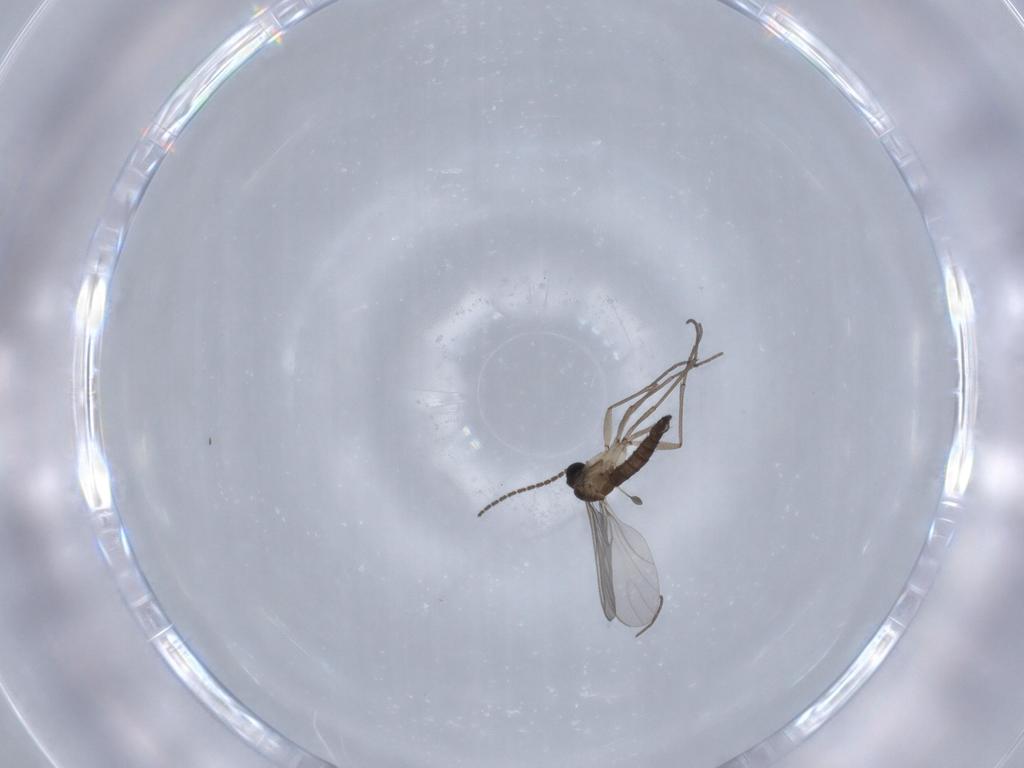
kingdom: Animalia
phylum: Arthropoda
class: Insecta
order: Diptera
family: Sciaridae
